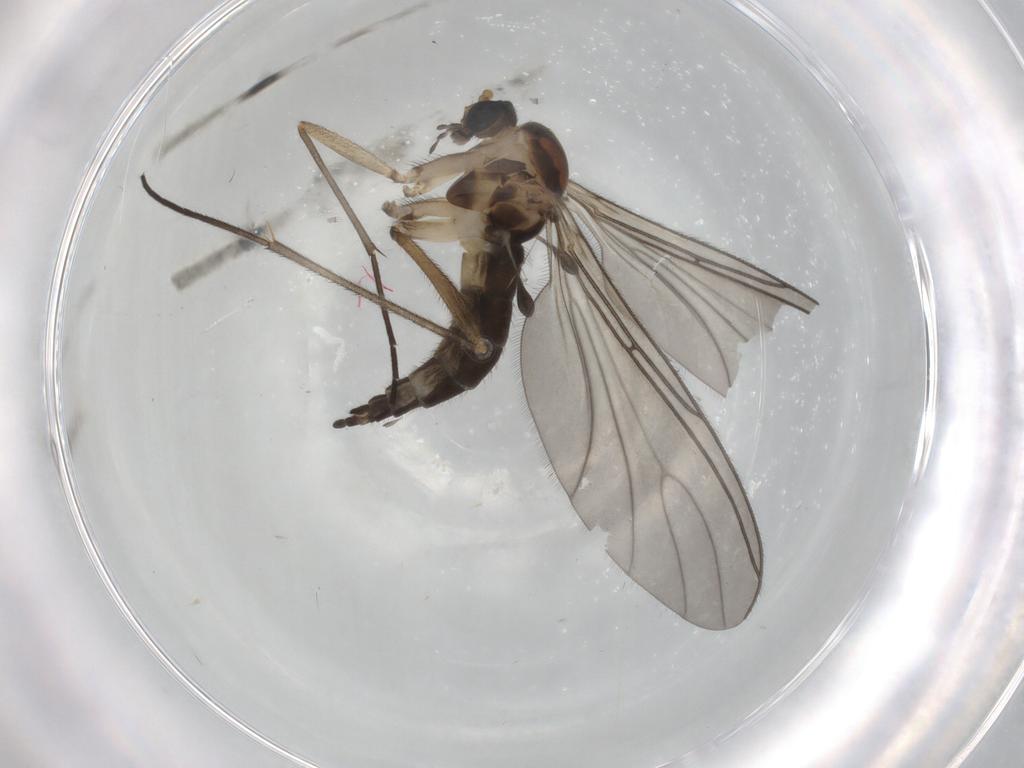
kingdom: Animalia
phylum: Arthropoda
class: Insecta
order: Diptera
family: Sciaridae
